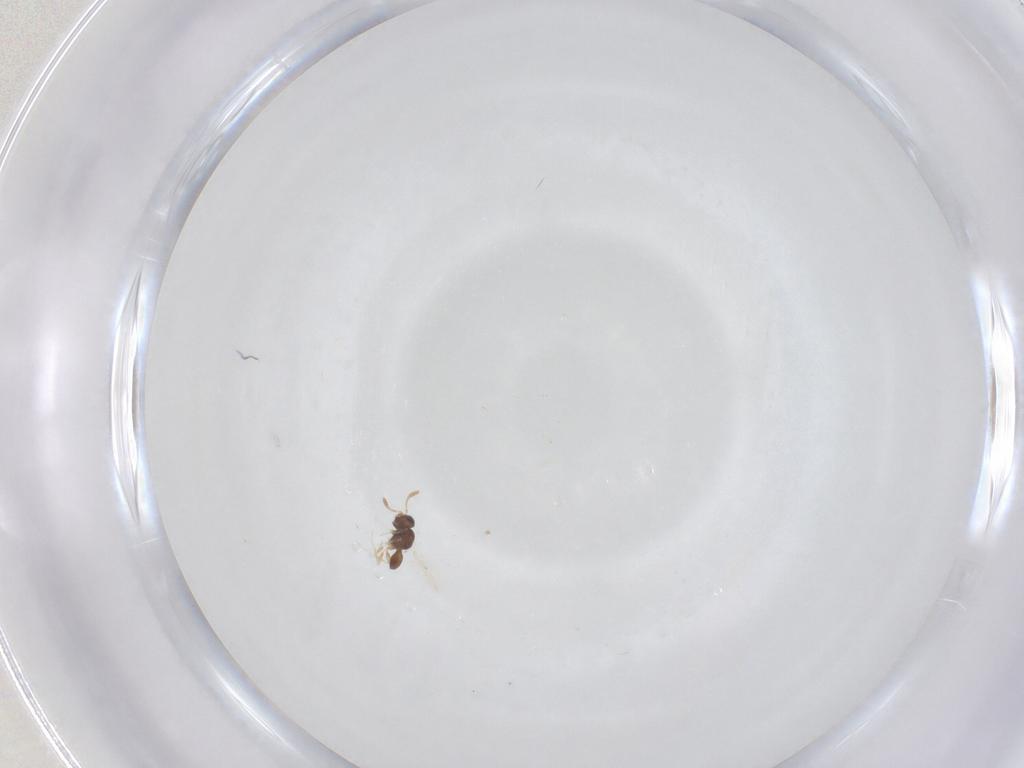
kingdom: Animalia
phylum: Arthropoda
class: Insecta
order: Hymenoptera
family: Scelionidae
